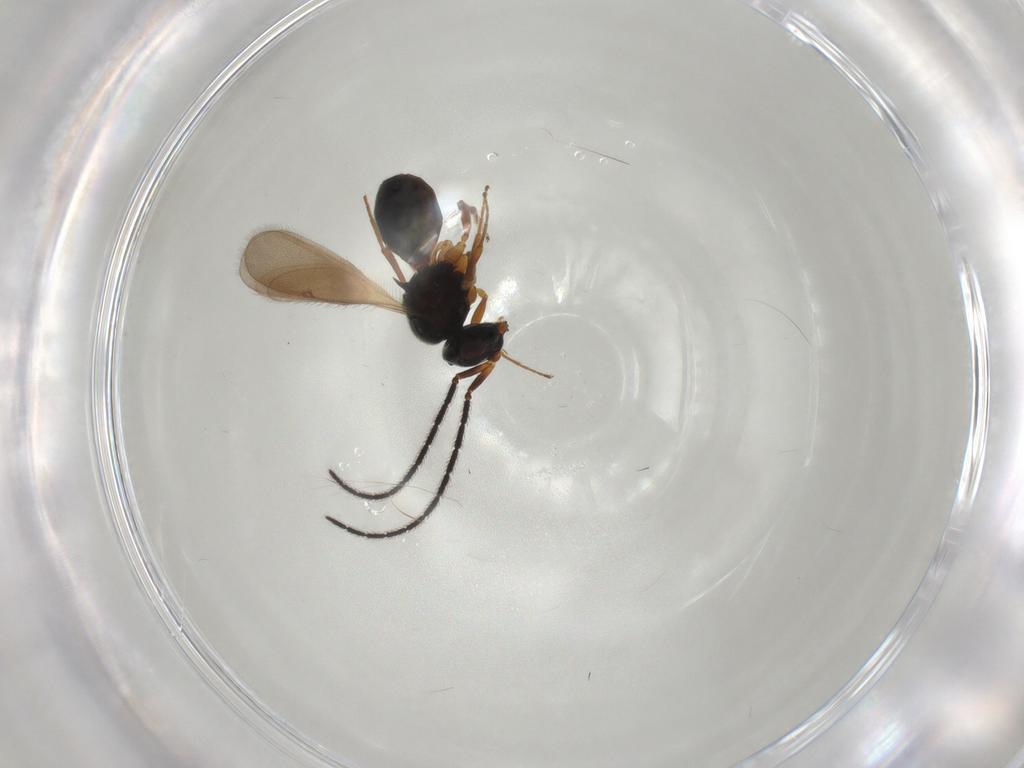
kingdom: Animalia
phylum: Arthropoda
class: Insecta
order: Hymenoptera
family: Scelionidae
